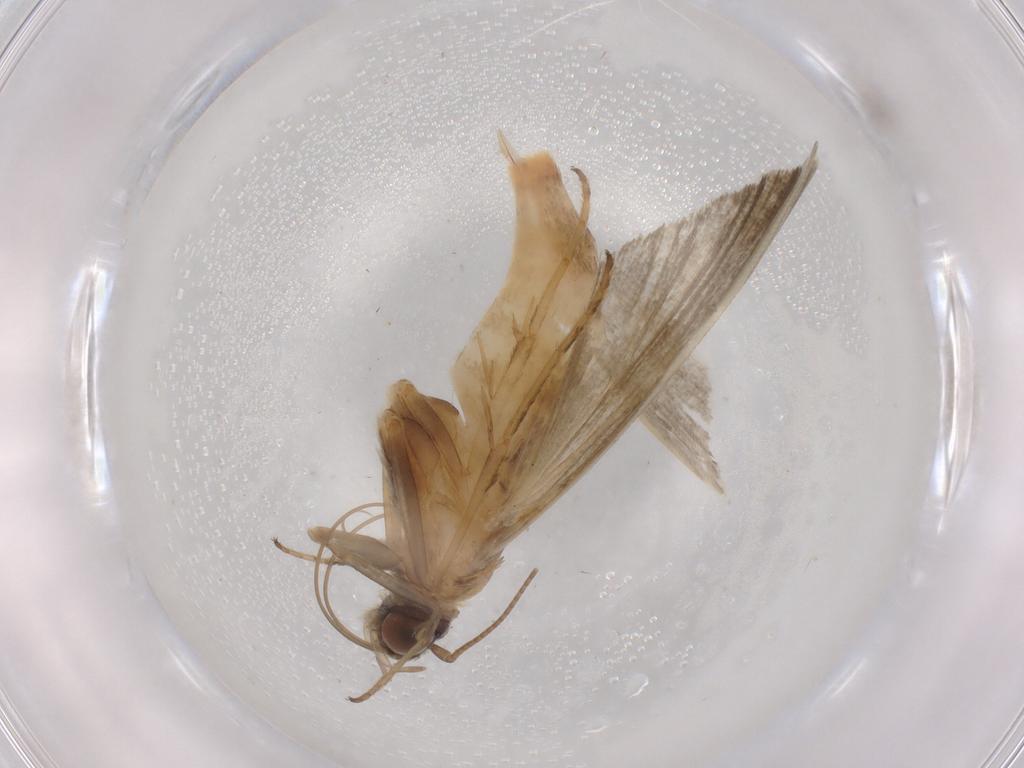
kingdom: Animalia
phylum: Arthropoda
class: Insecta
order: Lepidoptera
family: Noctuidae
